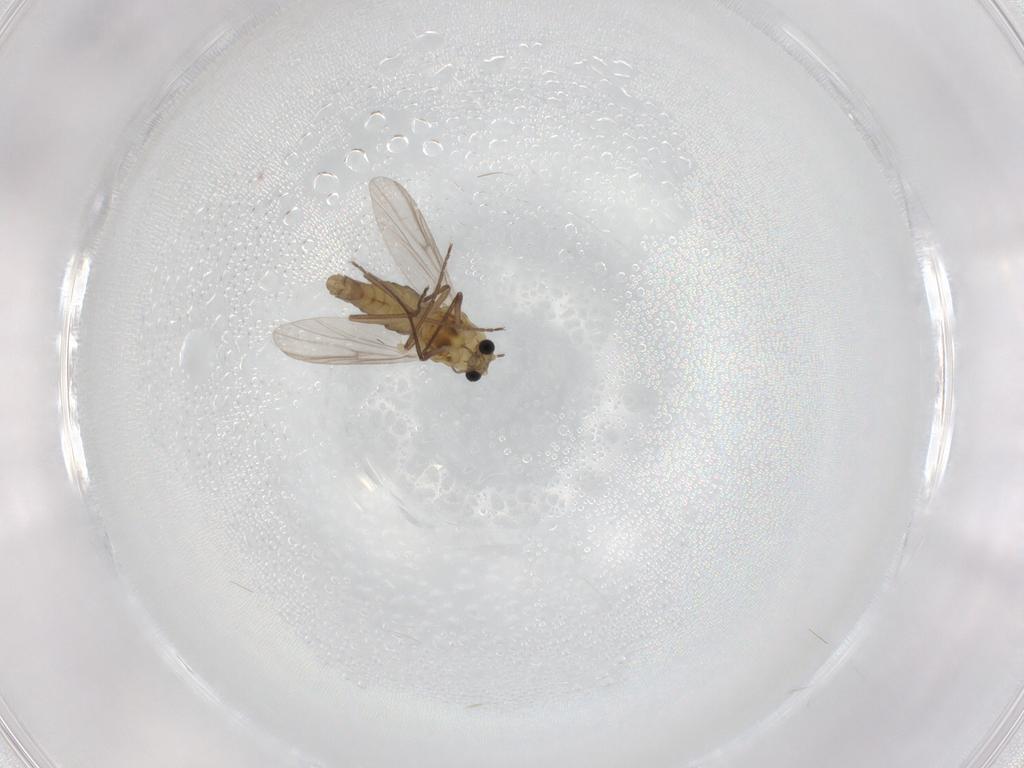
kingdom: Animalia
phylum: Arthropoda
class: Insecta
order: Diptera
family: Chironomidae
